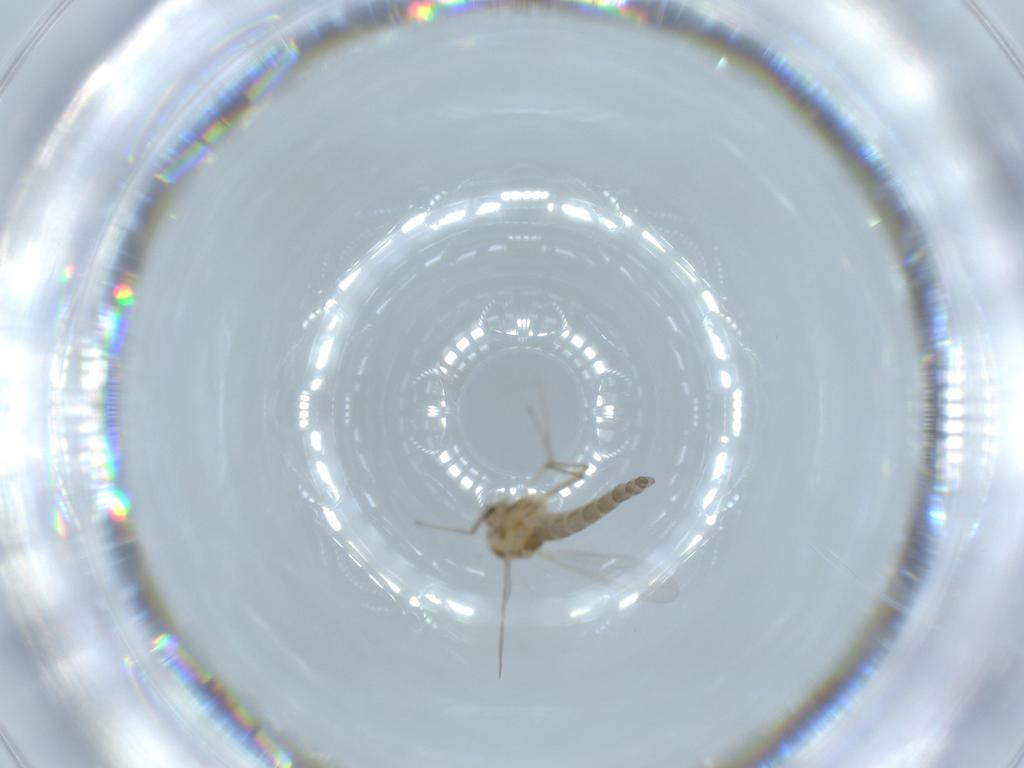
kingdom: Animalia
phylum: Arthropoda
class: Insecta
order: Diptera
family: Chironomidae
